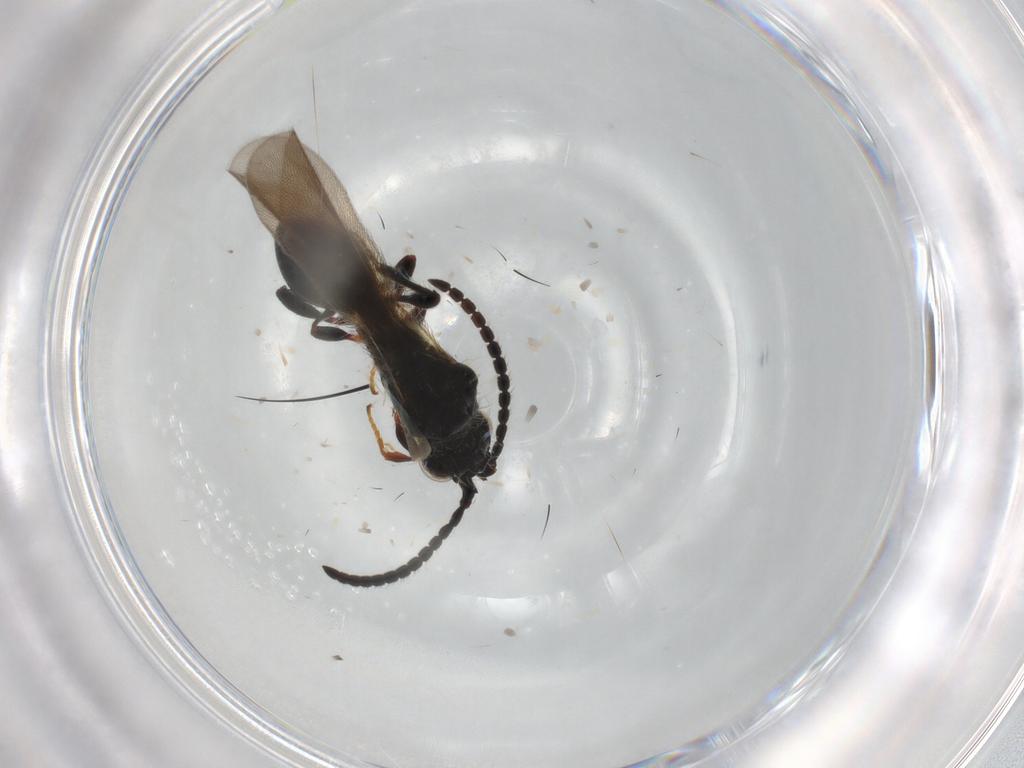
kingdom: Animalia
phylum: Arthropoda
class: Insecta
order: Hymenoptera
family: Diapriidae
